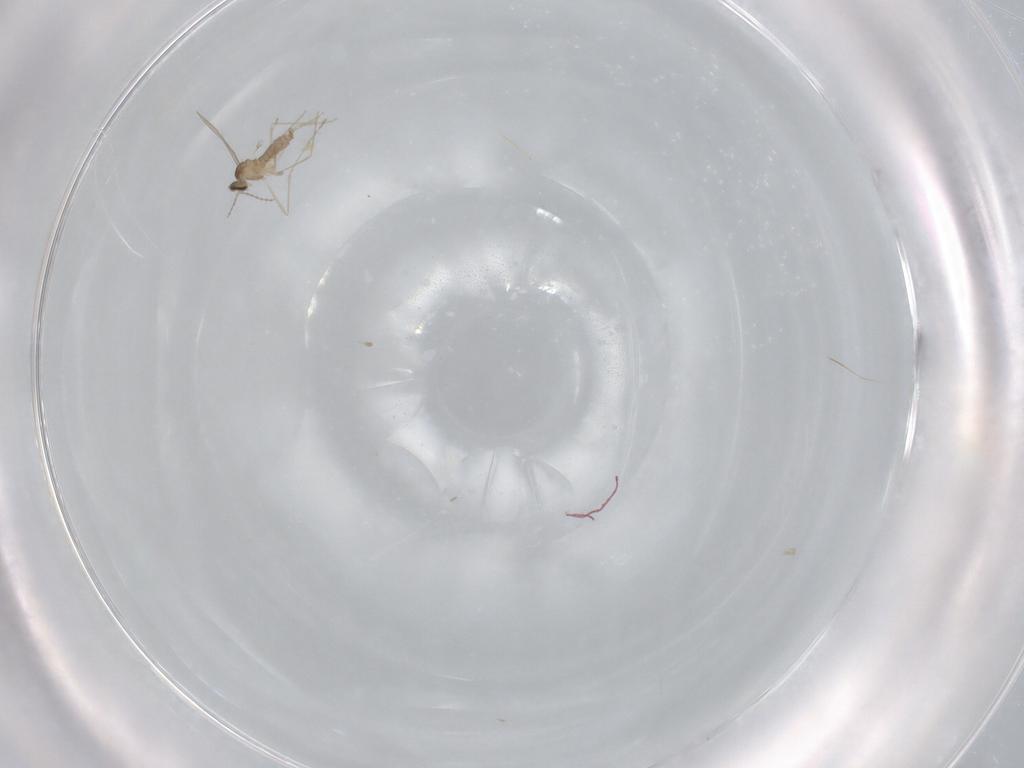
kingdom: Animalia
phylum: Arthropoda
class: Insecta
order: Diptera
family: Cecidomyiidae
